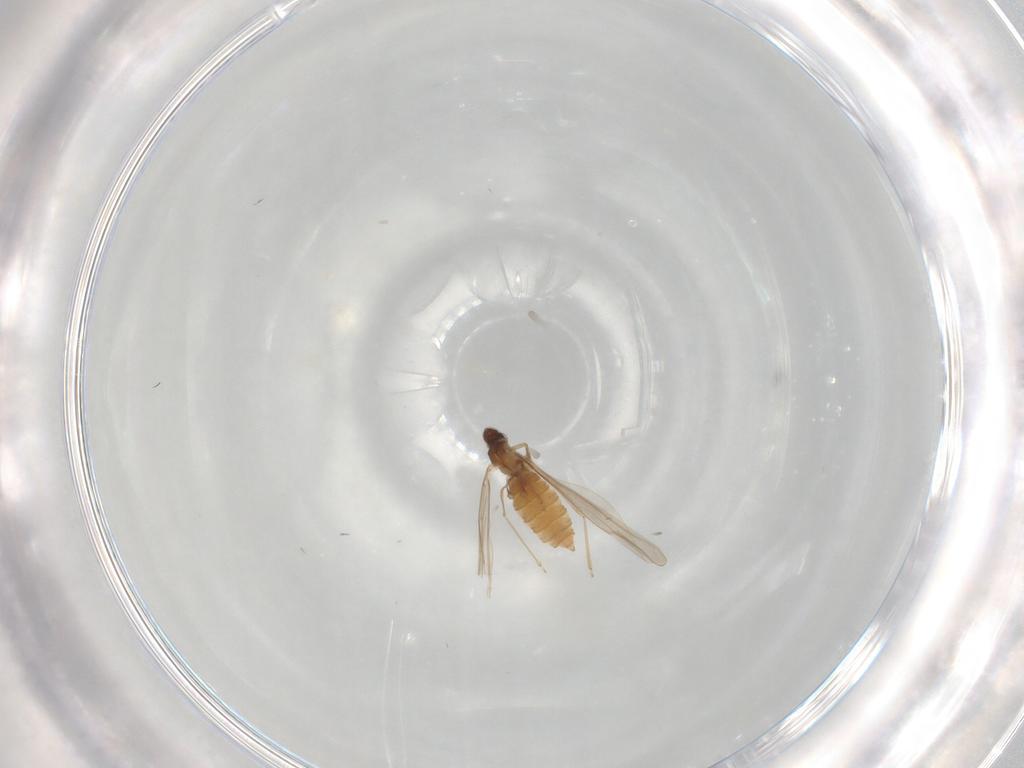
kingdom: Animalia
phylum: Arthropoda
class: Insecta
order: Diptera
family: Cecidomyiidae
